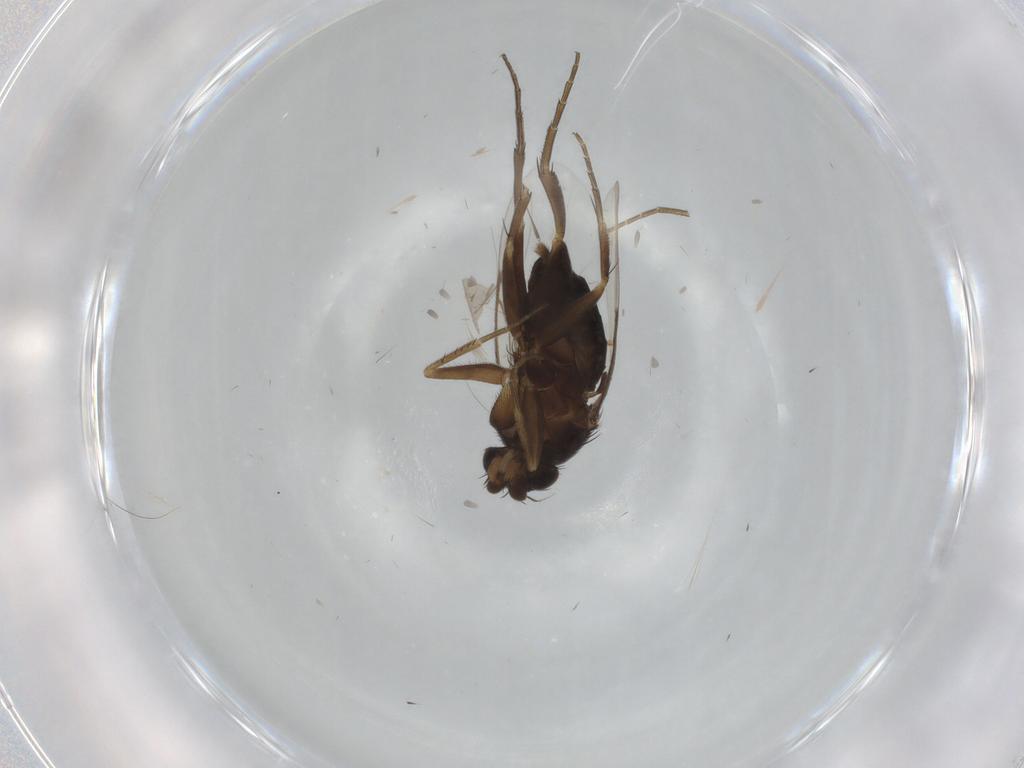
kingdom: Animalia
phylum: Arthropoda
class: Insecta
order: Diptera
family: Phoridae
